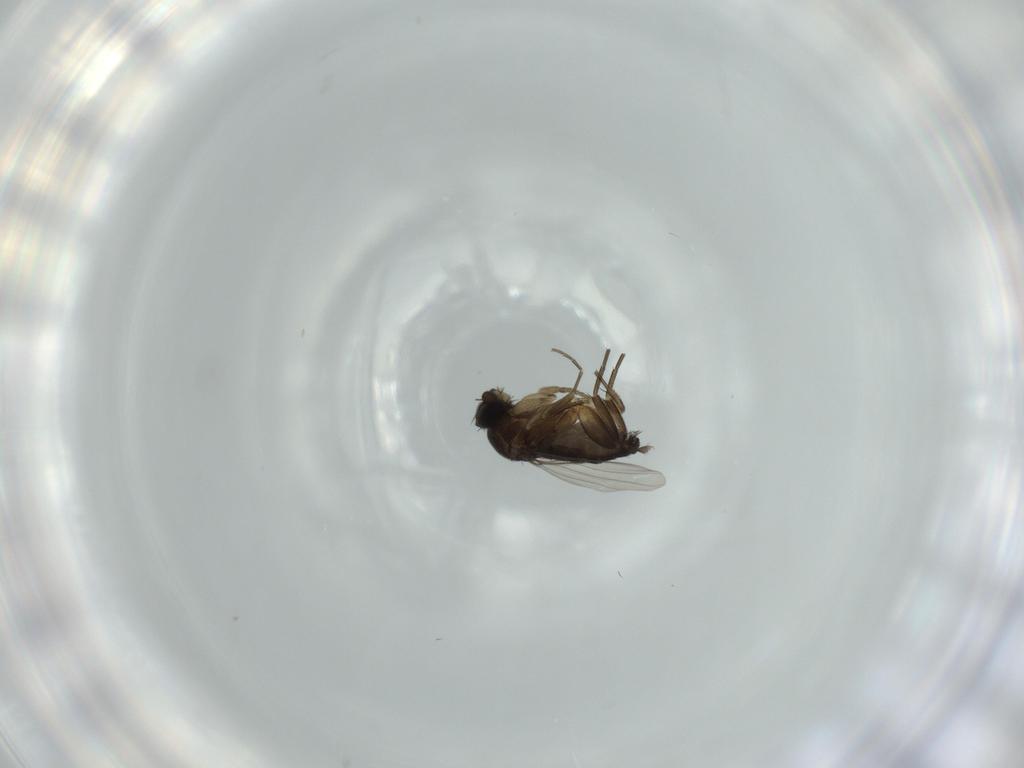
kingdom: Animalia
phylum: Arthropoda
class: Insecta
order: Diptera
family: Phoridae
